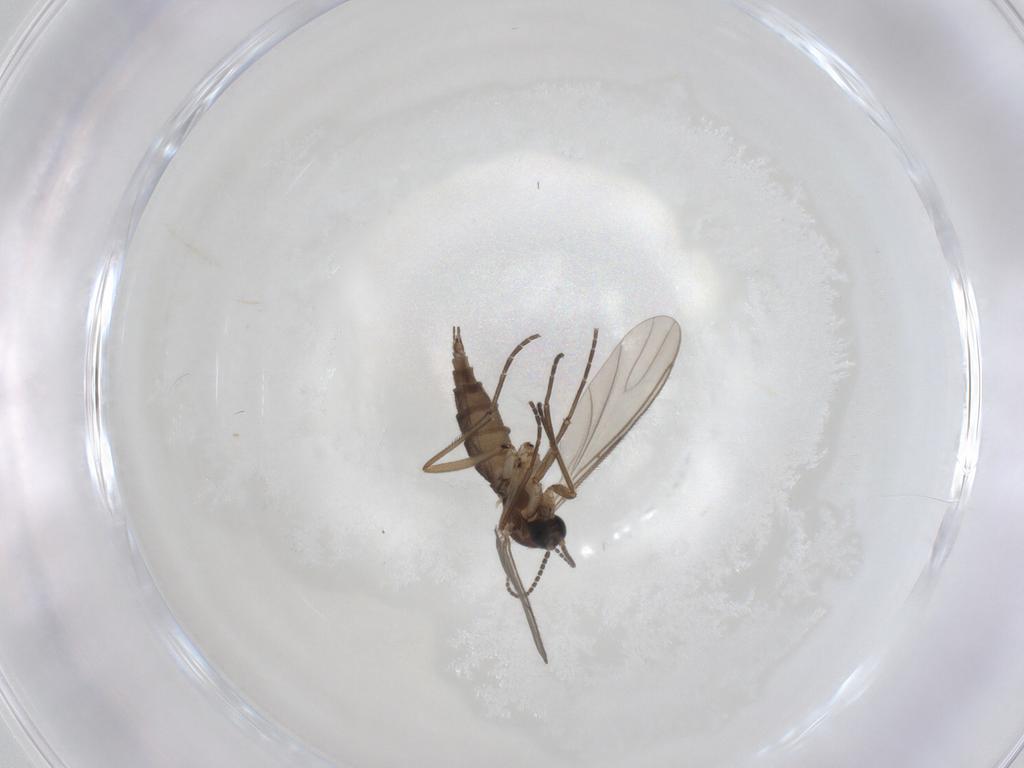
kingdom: Animalia
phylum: Arthropoda
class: Insecta
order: Diptera
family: Sciaridae
